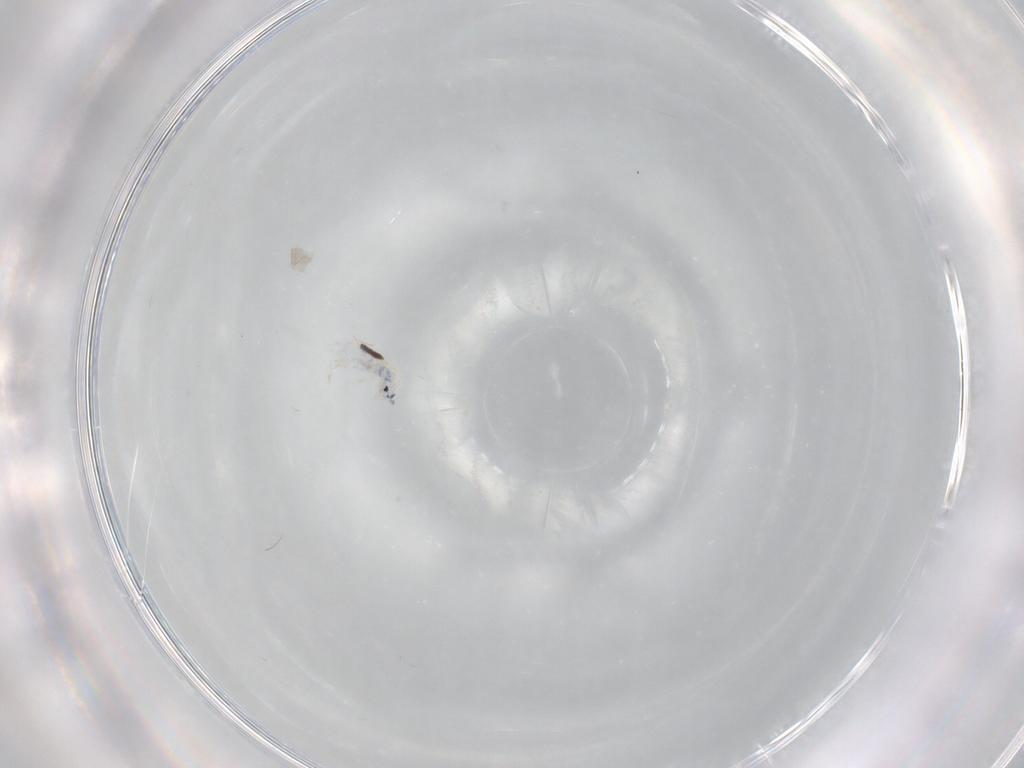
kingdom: Animalia
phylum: Arthropoda
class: Collembola
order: Entomobryomorpha
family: Entomobryidae
